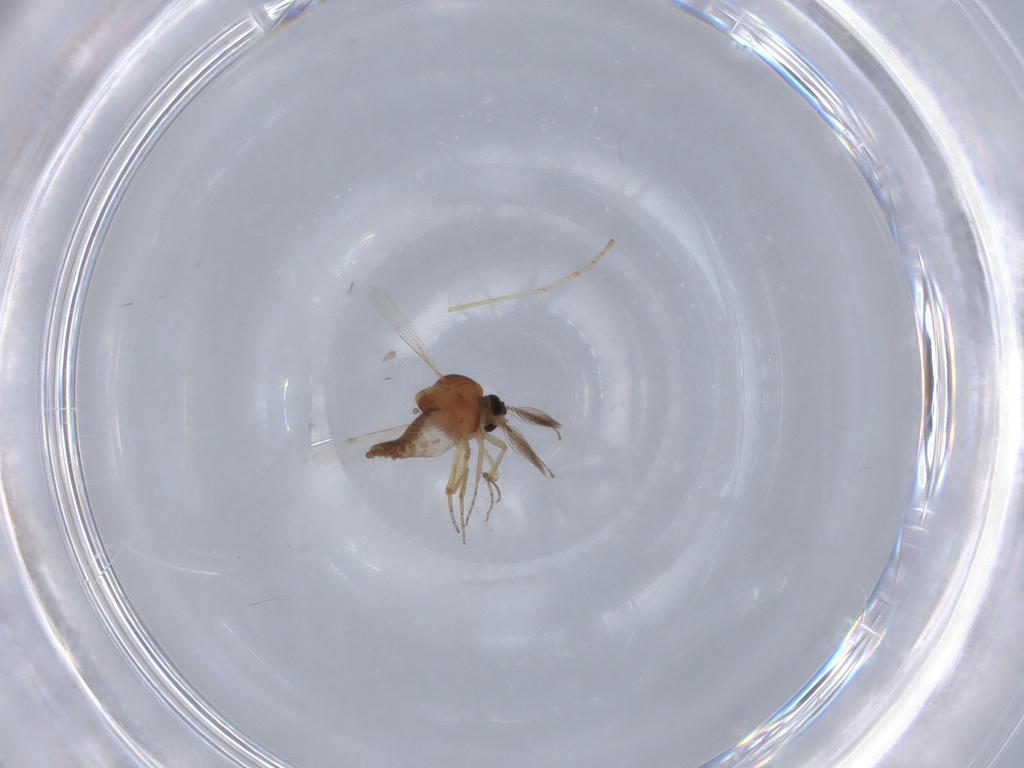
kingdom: Animalia
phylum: Arthropoda
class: Insecta
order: Diptera
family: Ceratopogonidae
